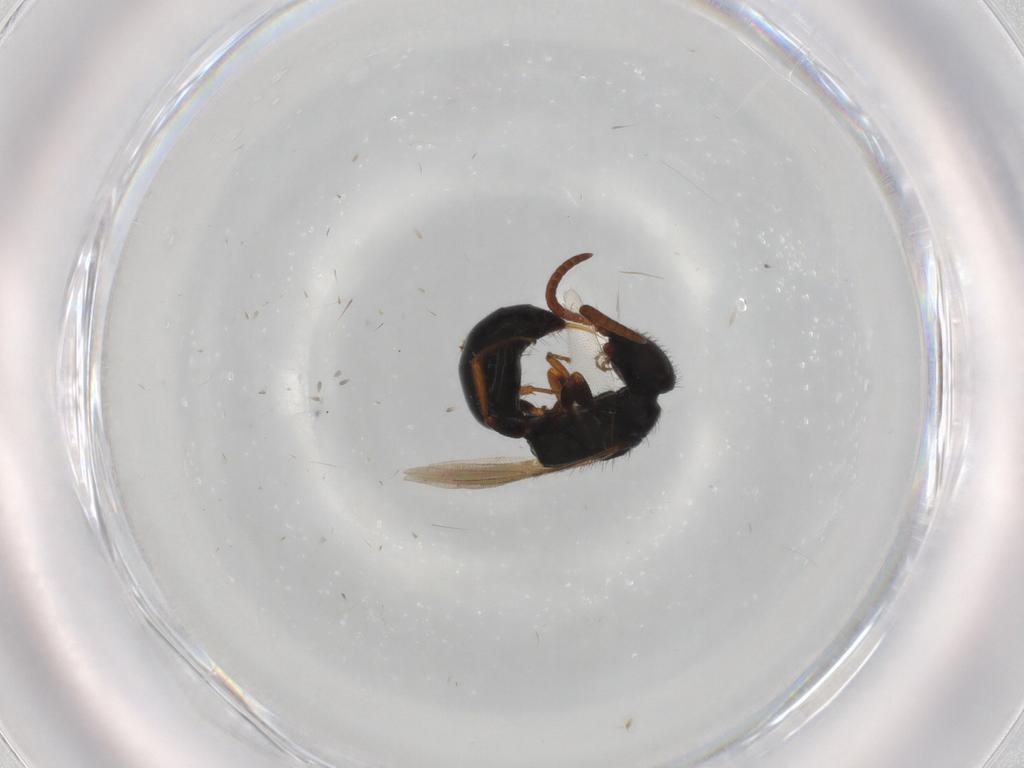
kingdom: Animalia
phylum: Arthropoda
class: Insecta
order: Hymenoptera
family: Bethylidae
